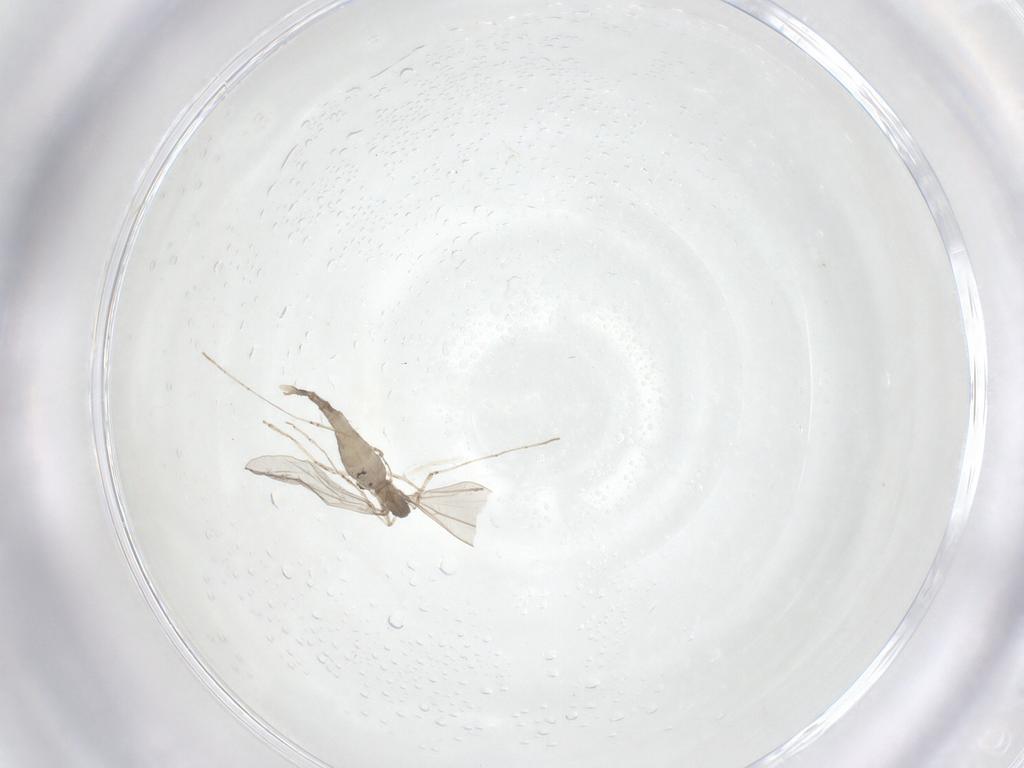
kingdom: Animalia
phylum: Arthropoda
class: Insecta
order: Diptera
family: Cecidomyiidae
